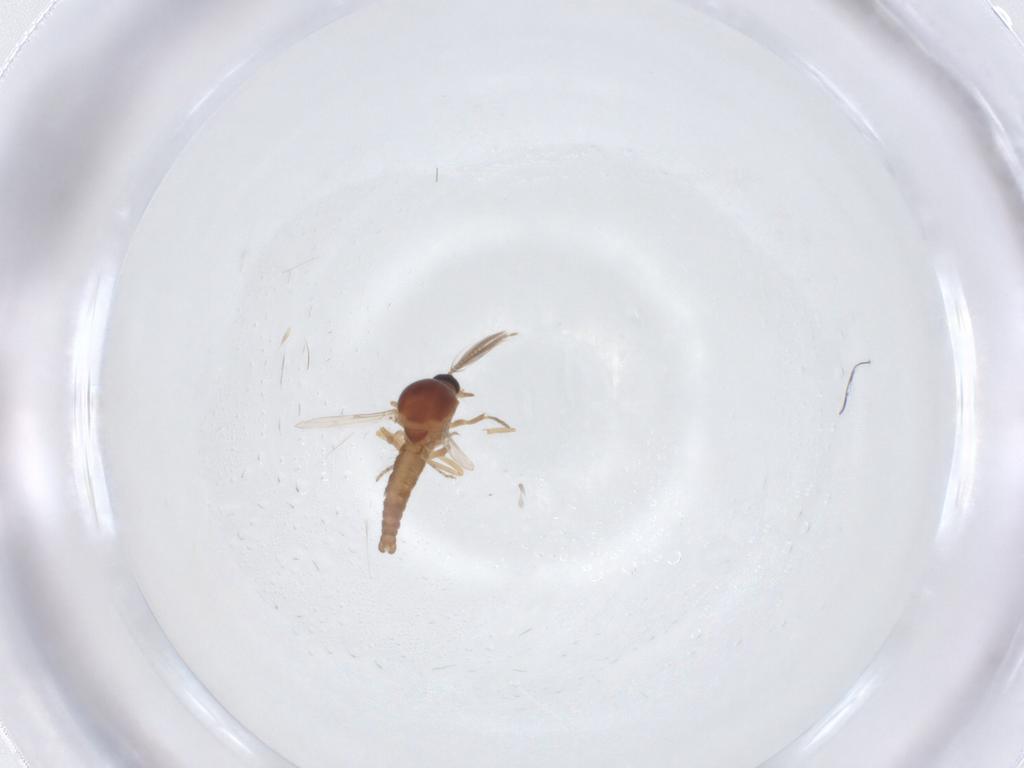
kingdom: Animalia
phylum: Arthropoda
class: Insecta
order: Diptera
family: Ceratopogonidae
